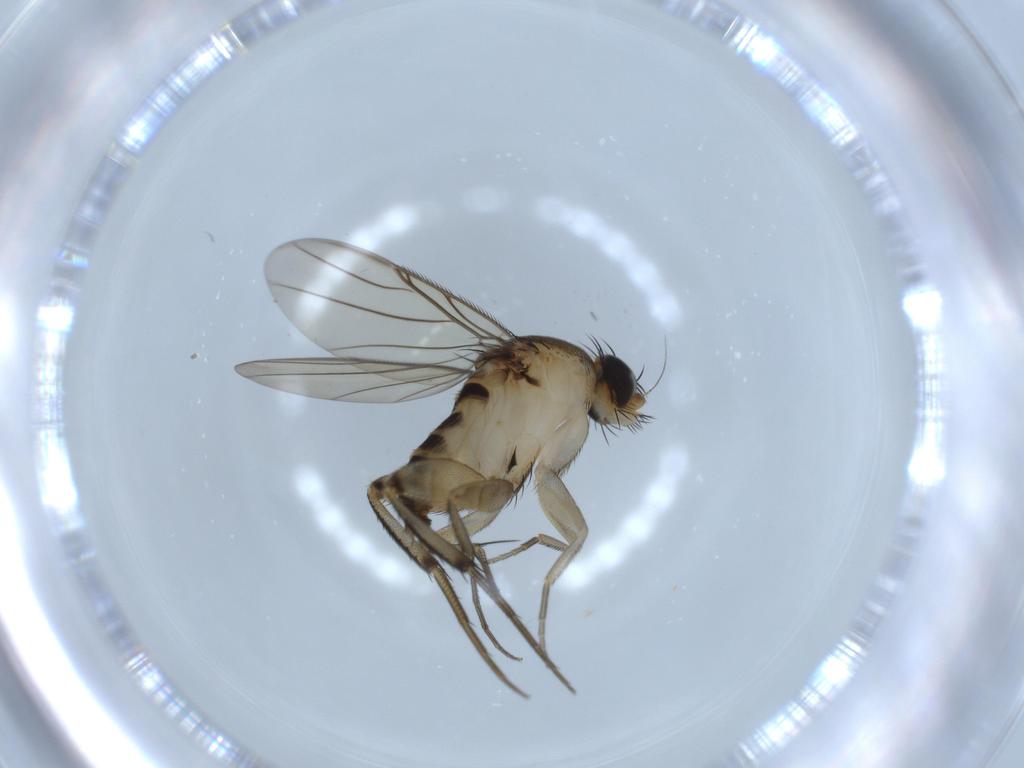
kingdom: Animalia
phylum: Arthropoda
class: Insecta
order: Diptera
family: Phoridae
